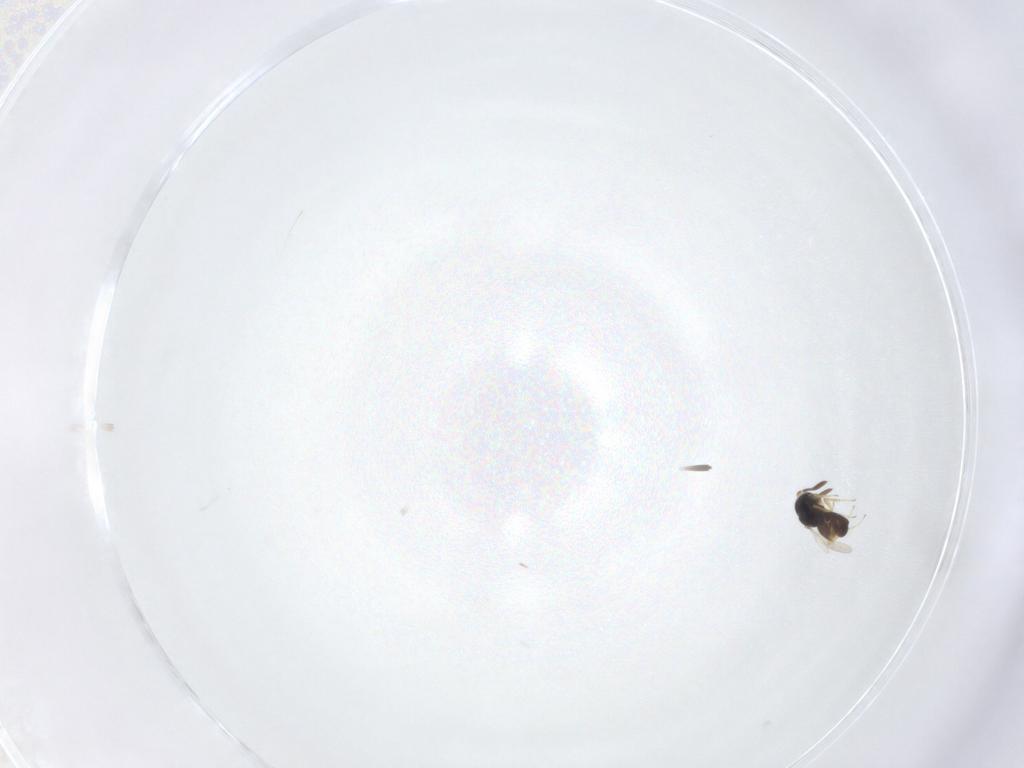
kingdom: Animalia
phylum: Arthropoda
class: Insecta
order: Hymenoptera
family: Scelionidae
